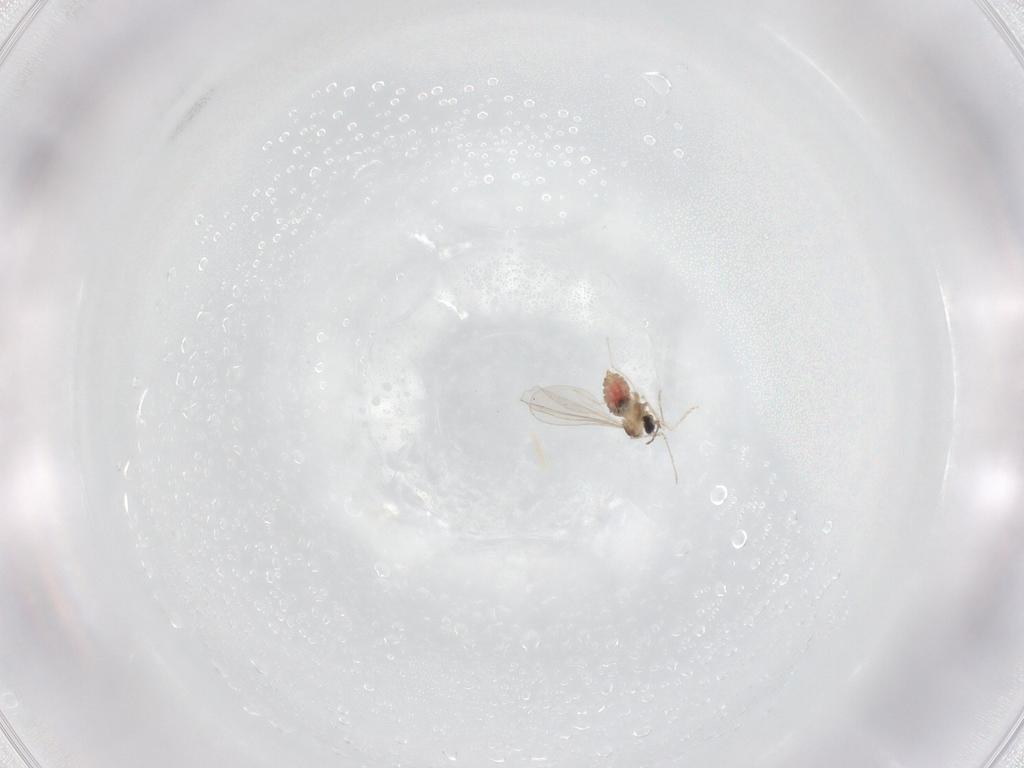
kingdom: Animalia
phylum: Arthropoda
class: Insecta
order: Diptera
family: Cecidomyiidae
